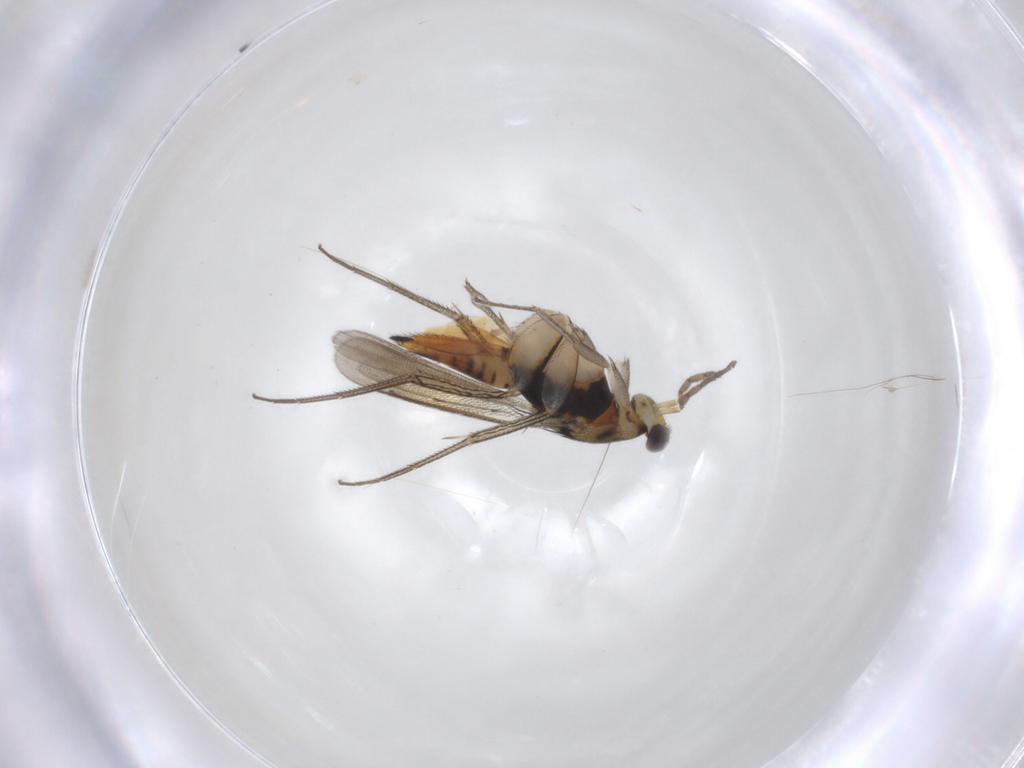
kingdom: Animalia
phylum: Arthropoda
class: Insecta
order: Hymenoptera
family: Eulophidae
